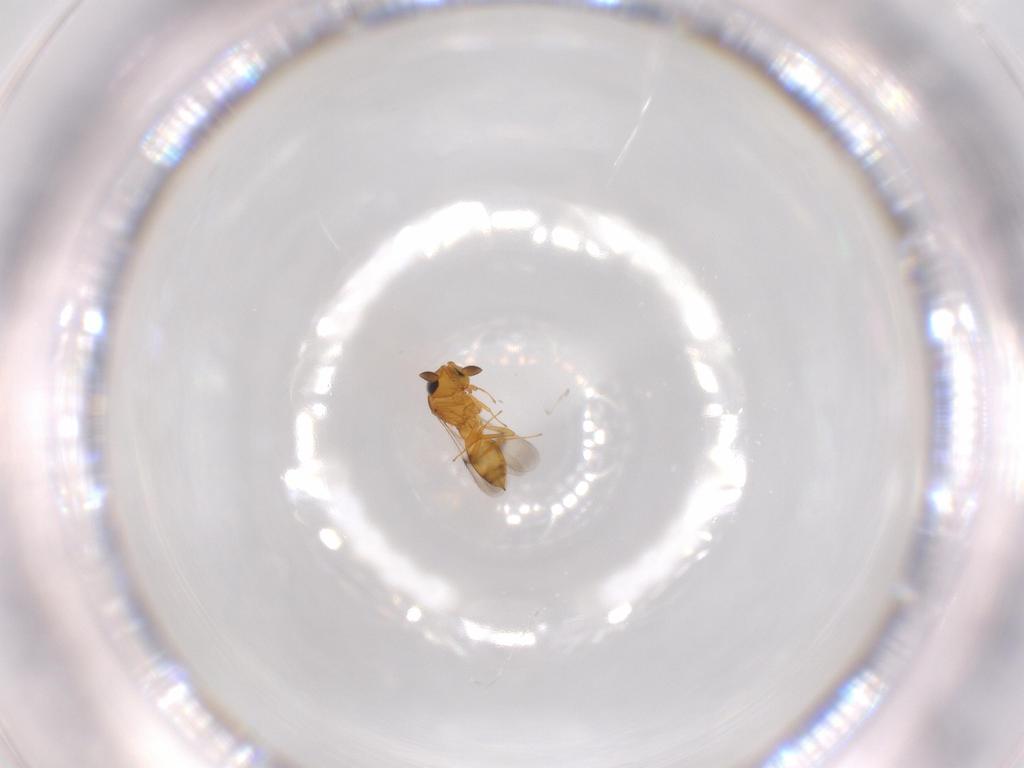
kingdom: Animalia
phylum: Arthropoda
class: Insecta
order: Hymenoptera
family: Scelionidae
